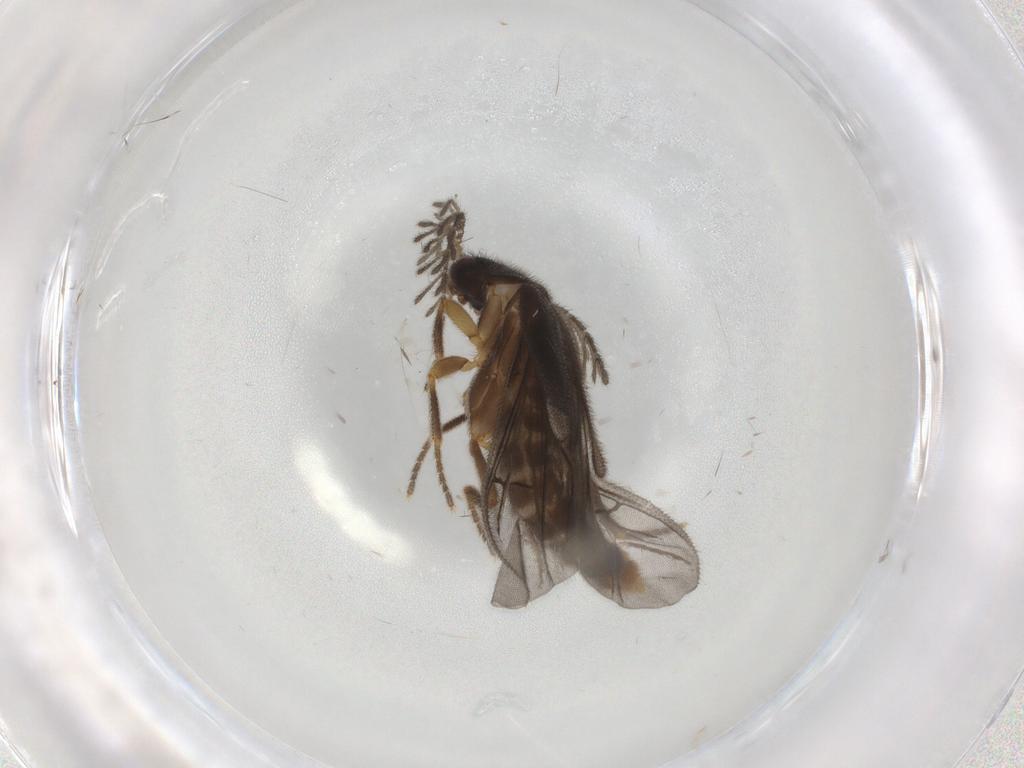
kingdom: Animalia
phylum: Arthropoda
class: Insecta
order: Coleoptera
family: Chrysomelidae
